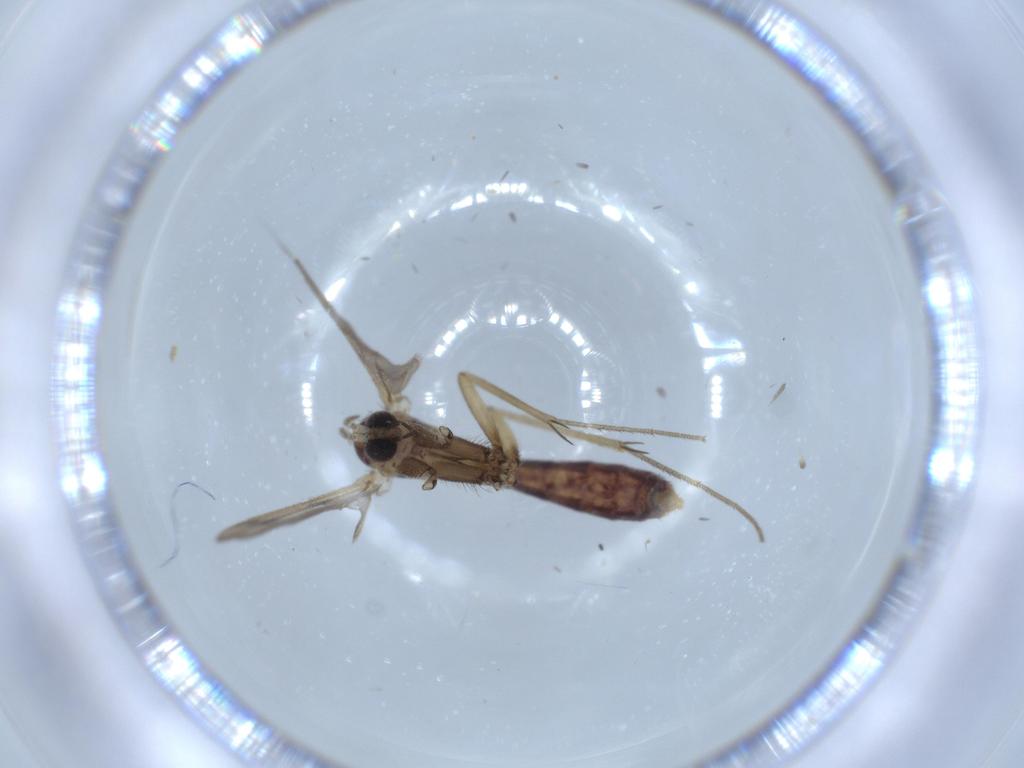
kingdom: Animalia
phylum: Arthropoda
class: Insecta
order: Diptera
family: Mycetophilidae
